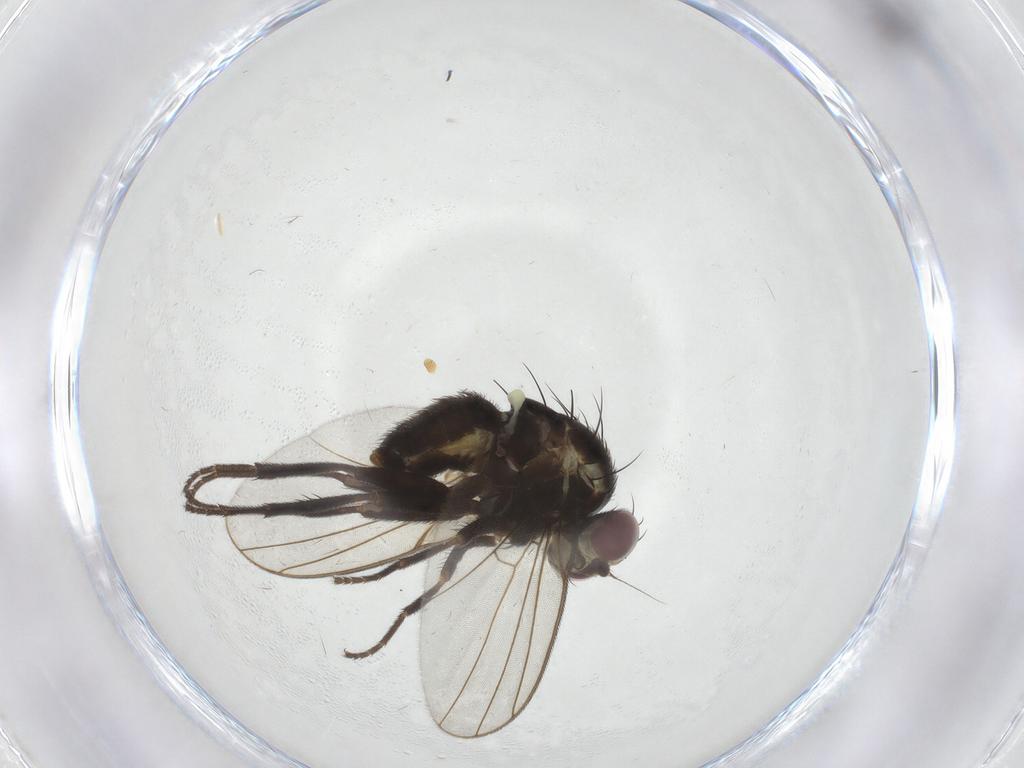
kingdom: Animalia
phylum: Arthropoda
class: Insecta
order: Diptera
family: Agromyzidae
